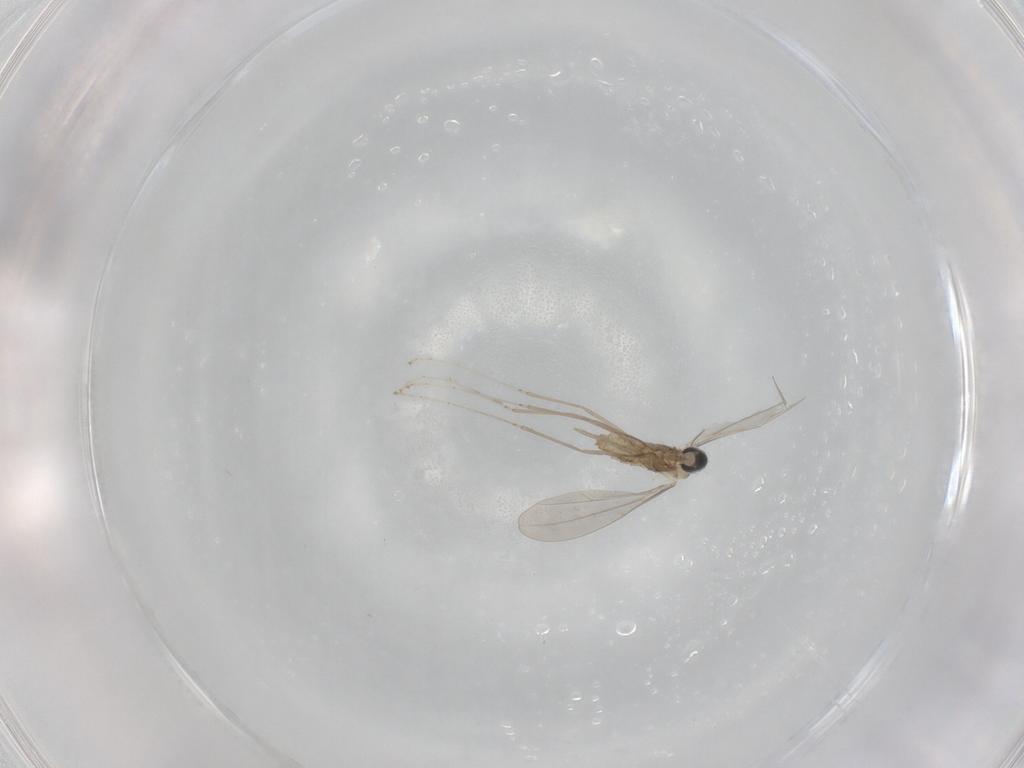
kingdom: Animalia
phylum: Arthropoda
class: Insecta
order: Diptera
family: Cecidomyiidae
